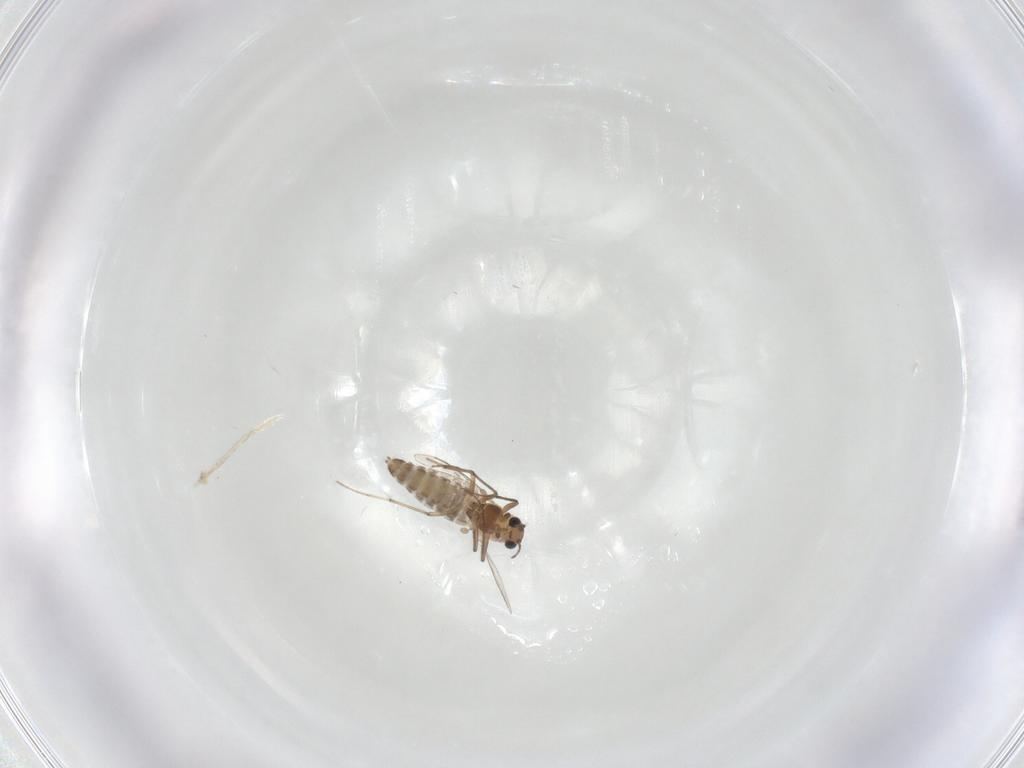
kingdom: Animalia
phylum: Arthropoda
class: Insecta
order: Diptera
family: Chironomidae
